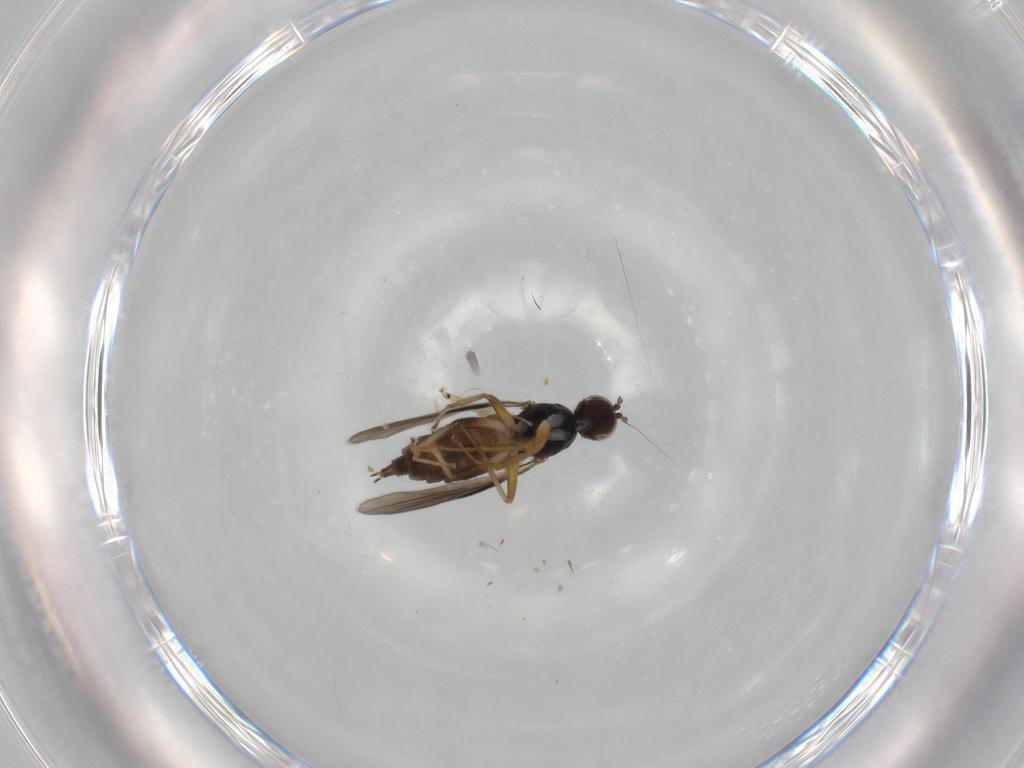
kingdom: Animalia
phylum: Arthropoda
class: Insecta
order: Diptera
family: Hybotidae
